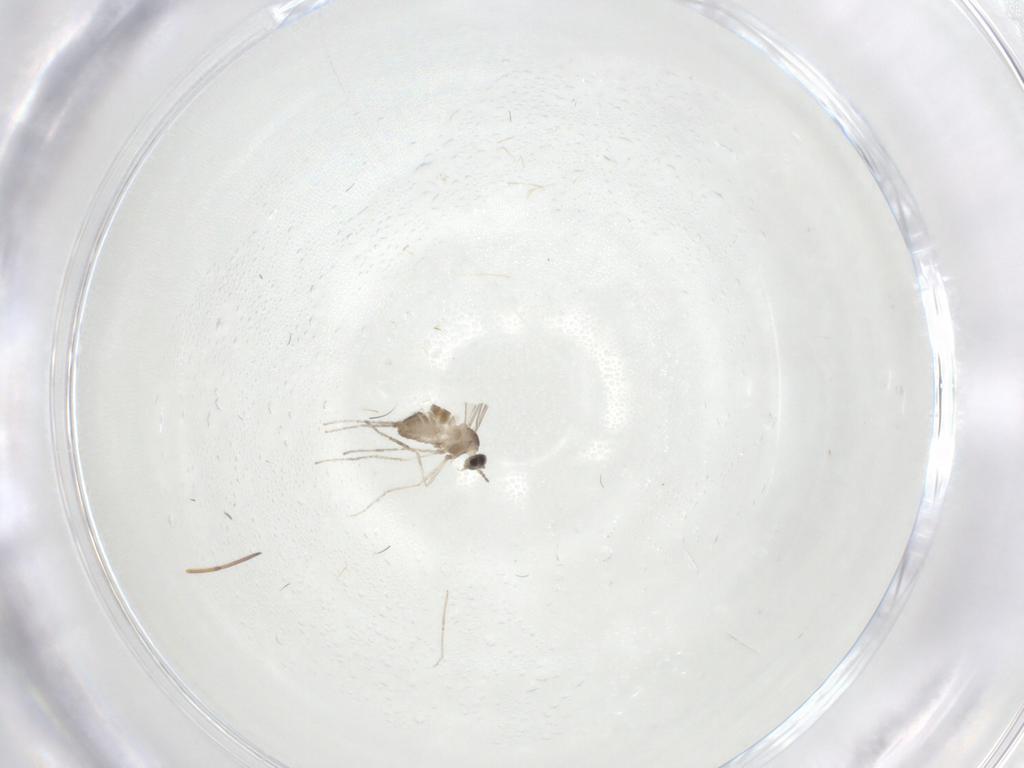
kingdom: Animalia
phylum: Arthropoda
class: Insecta
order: Diptera
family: Cecidomyiidae
